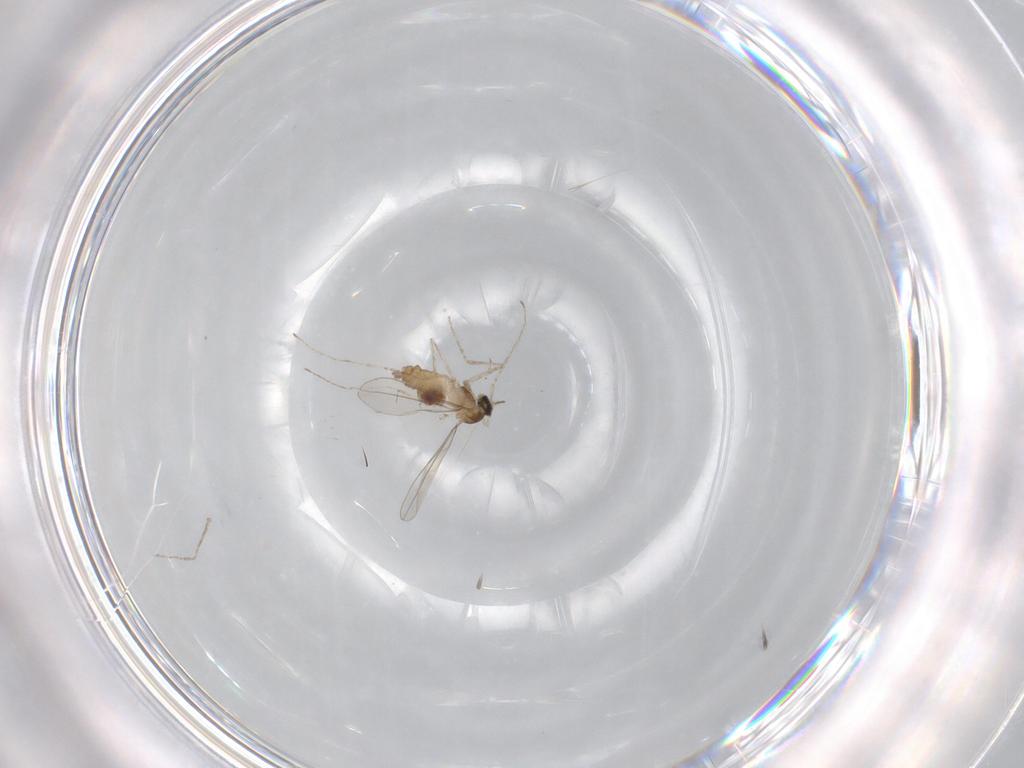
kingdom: Animalia
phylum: Arthropoda
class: Insecta
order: Diptera
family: Cecidomyiidae
